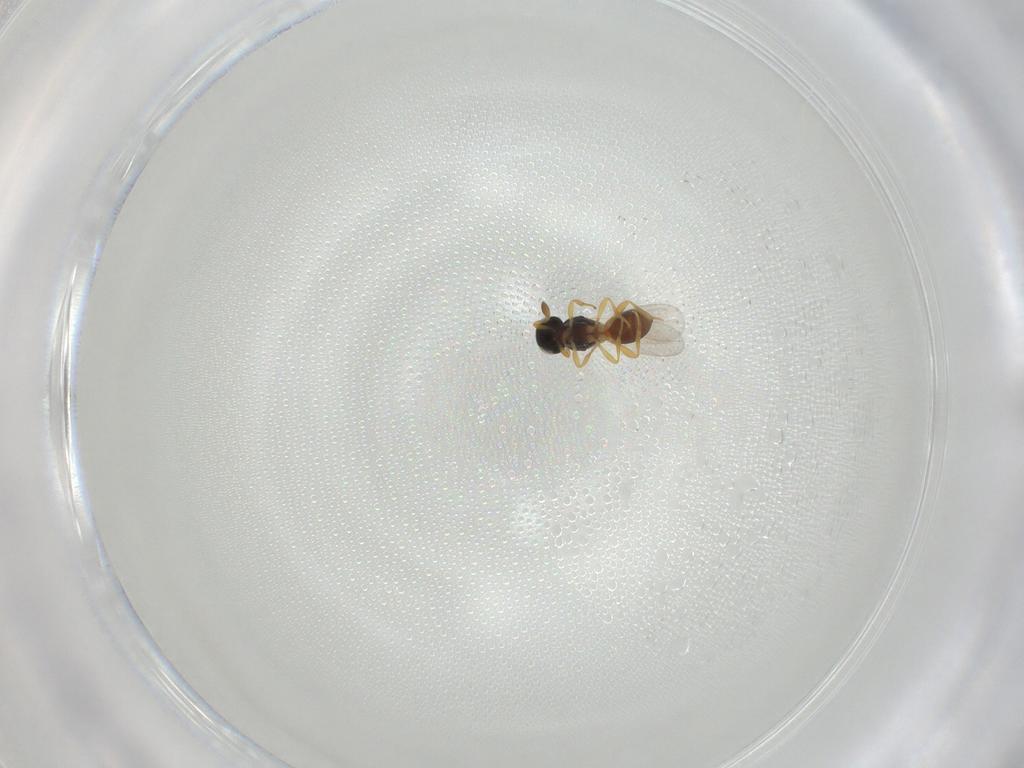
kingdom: Animalia
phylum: Arthropoda
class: Insecta
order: Hymenoptera
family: Platygastridae
